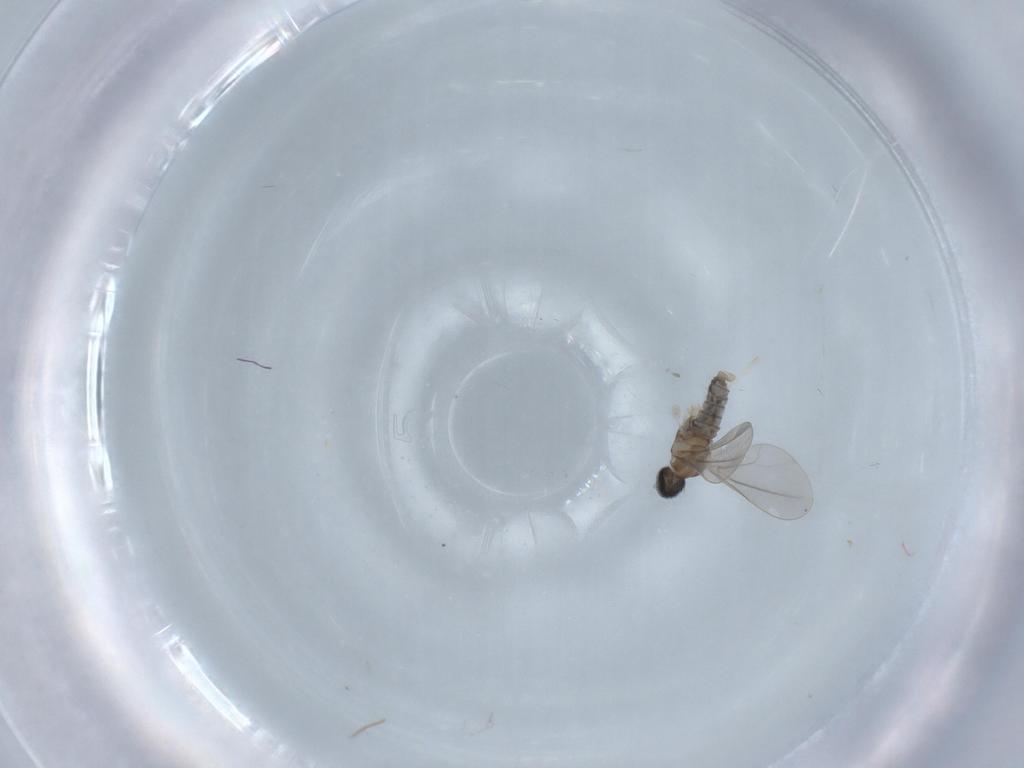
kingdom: Animalia
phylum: Arthropoda
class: Insecta
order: Diptera
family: Cecidomyiidae
